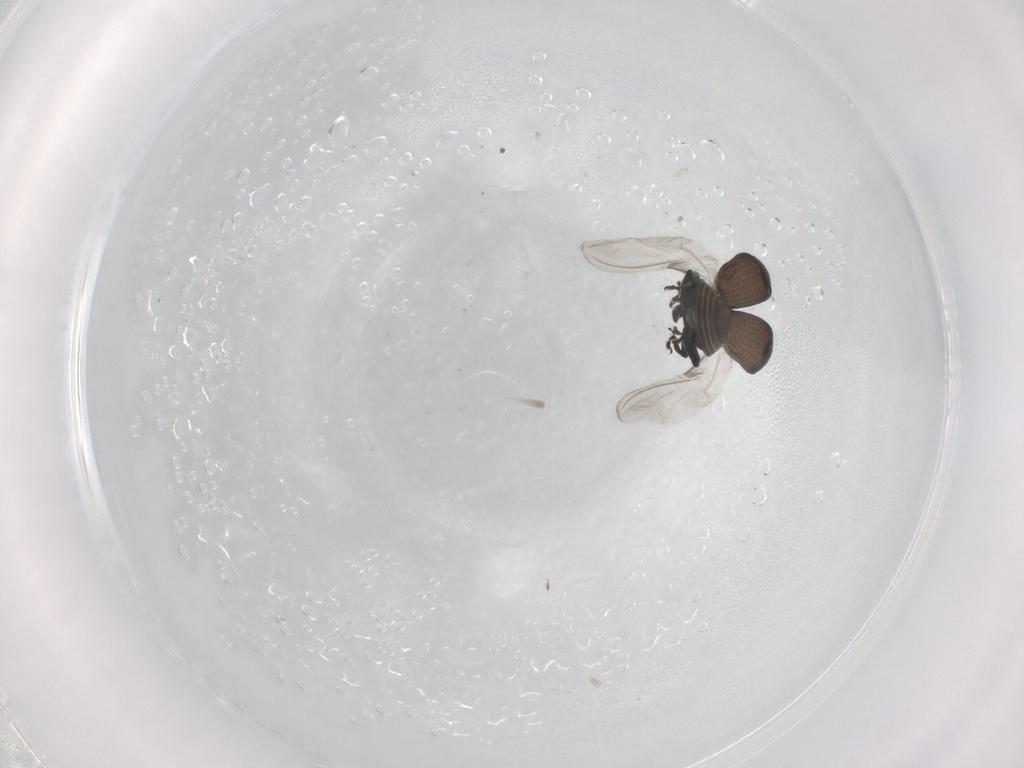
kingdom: Animalia
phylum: Arthropoda
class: Insecta
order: Coleoptera
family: Curculionidae
